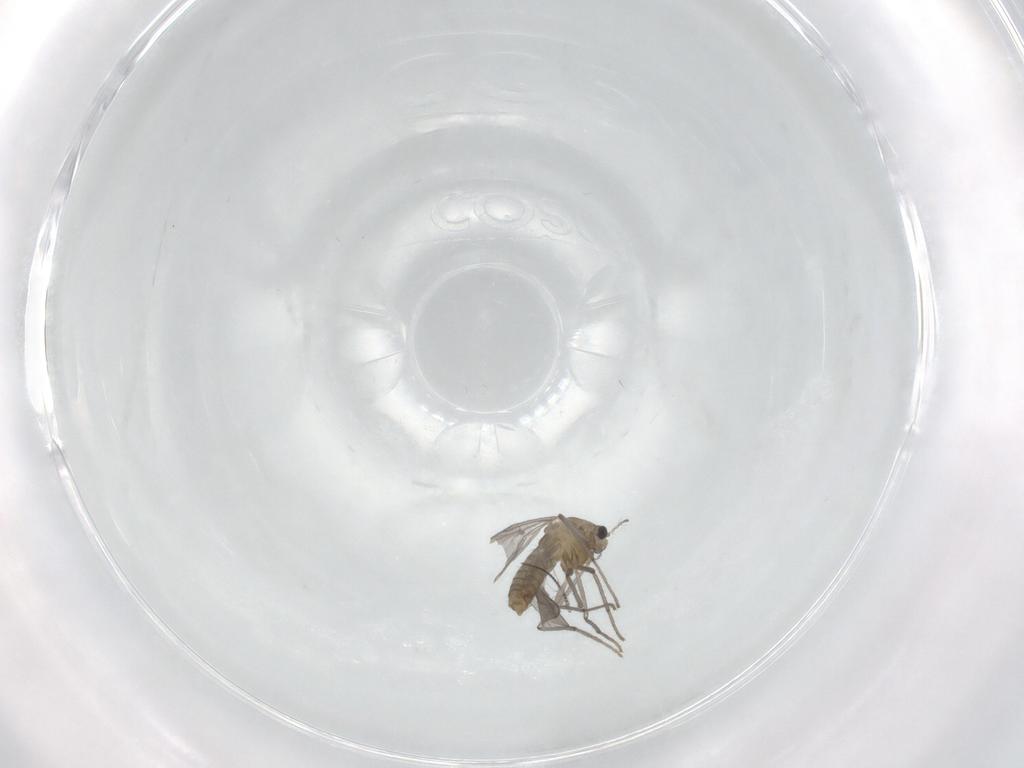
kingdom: Animalia
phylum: Arthropoda
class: Insecta
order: Diptera
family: Chironomidae
